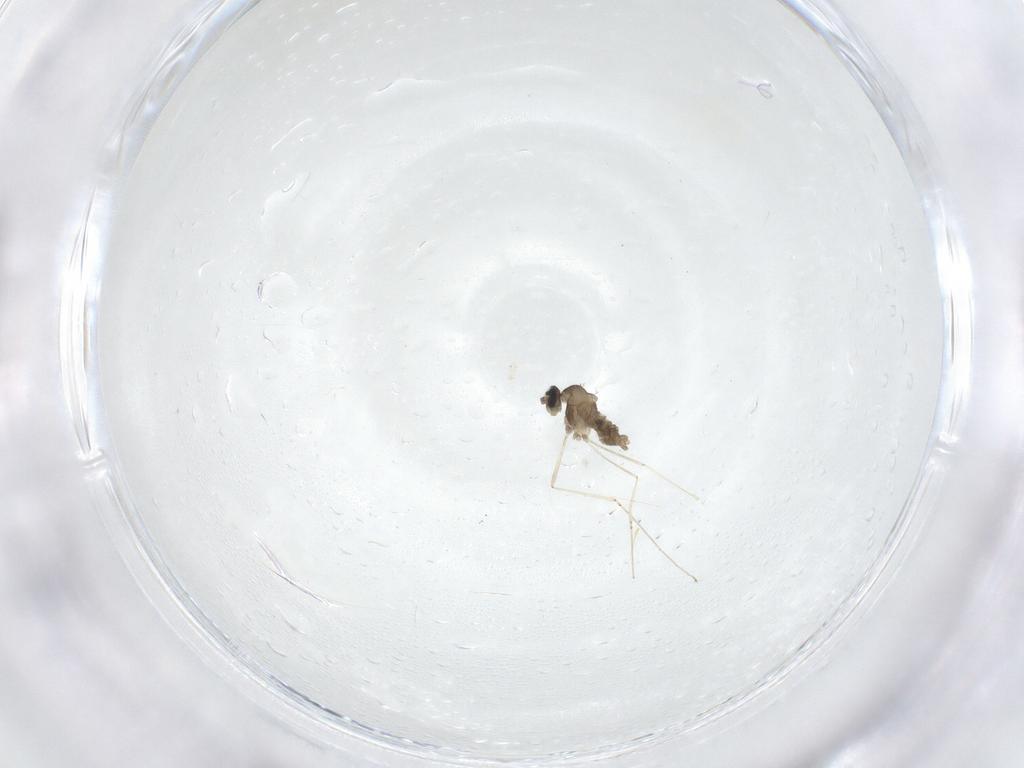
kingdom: Animalia
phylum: Arthropoda
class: Insecta
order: Diptera
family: Cecidomyiidae
